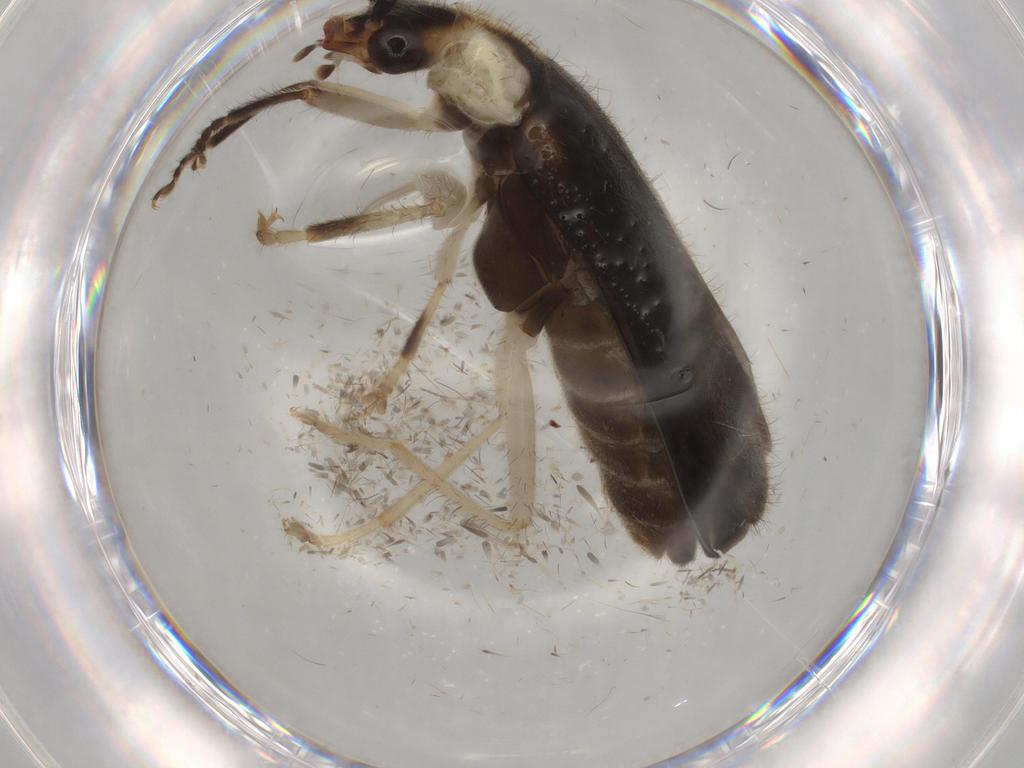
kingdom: Animalia
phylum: Arthropoda
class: Insecta
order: Coleoptera
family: Cantharidae
